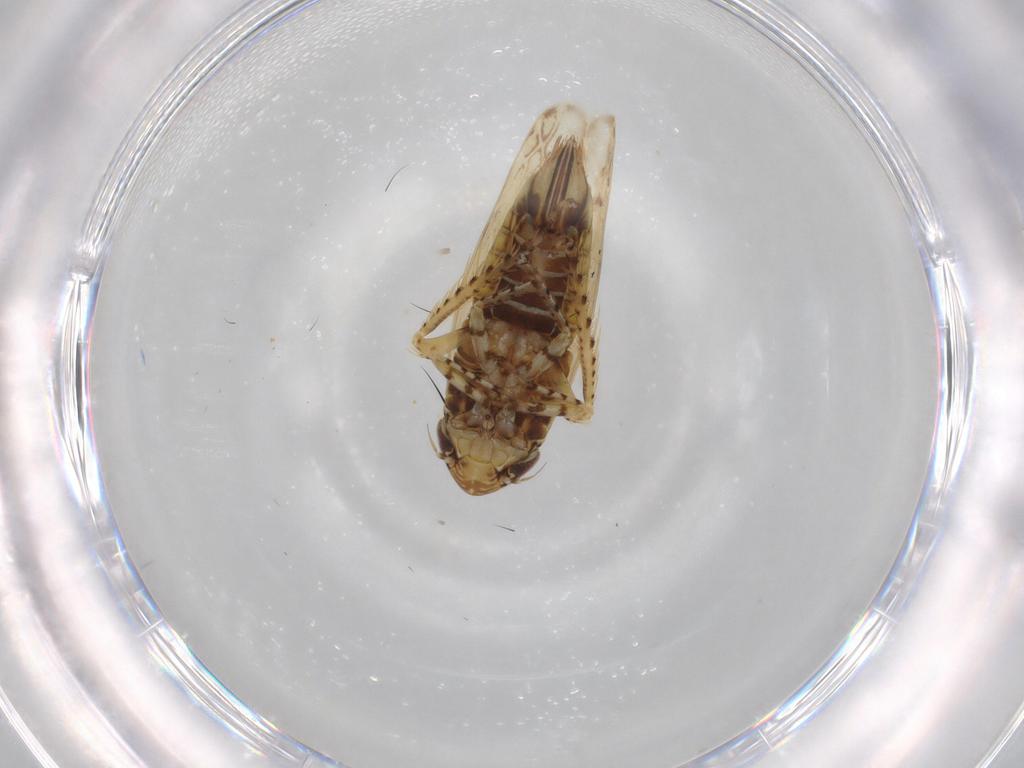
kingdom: Animalia
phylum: Arthropoda
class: Insecta
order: Hemiptera
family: Cicadellidae
